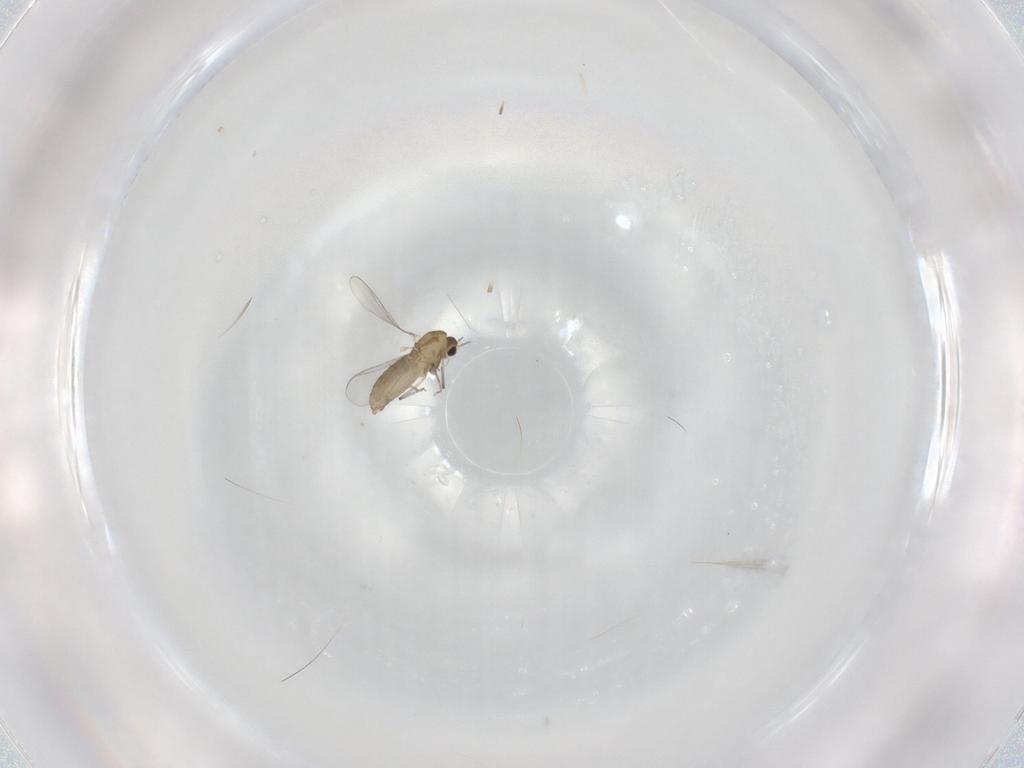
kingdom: Animalia
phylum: Arthropoda
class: Insecta
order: Diptera
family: Chironomidae
